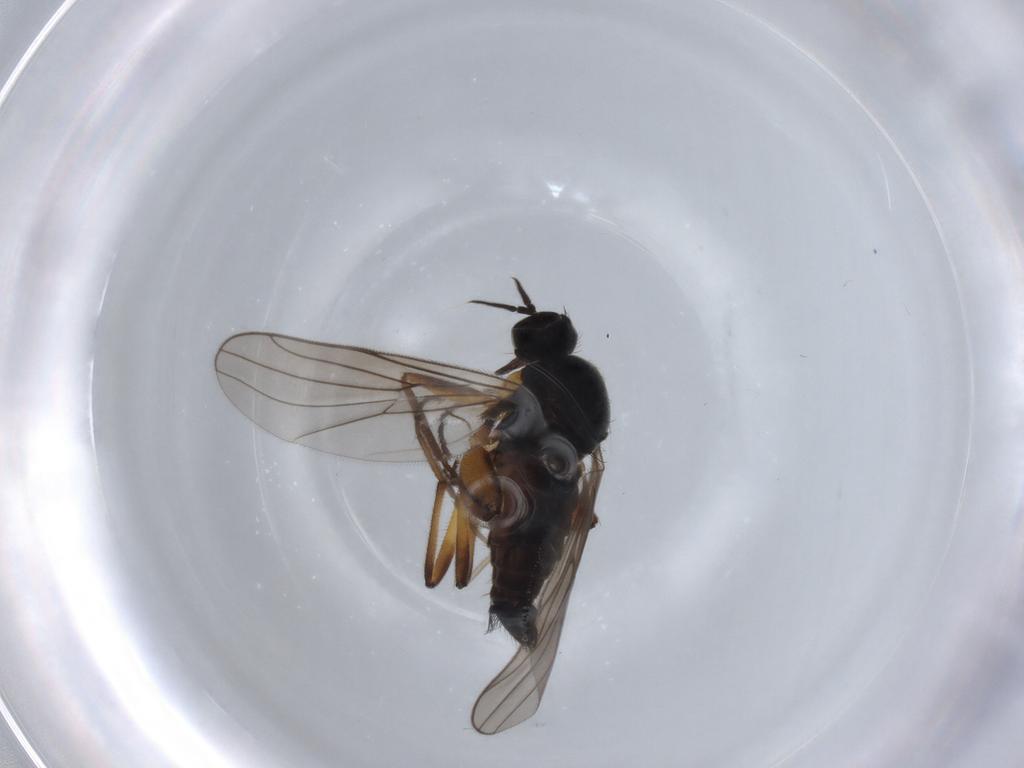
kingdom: Animalia
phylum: Arthropoda
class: Insecta
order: Diptera
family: Hybotidae
